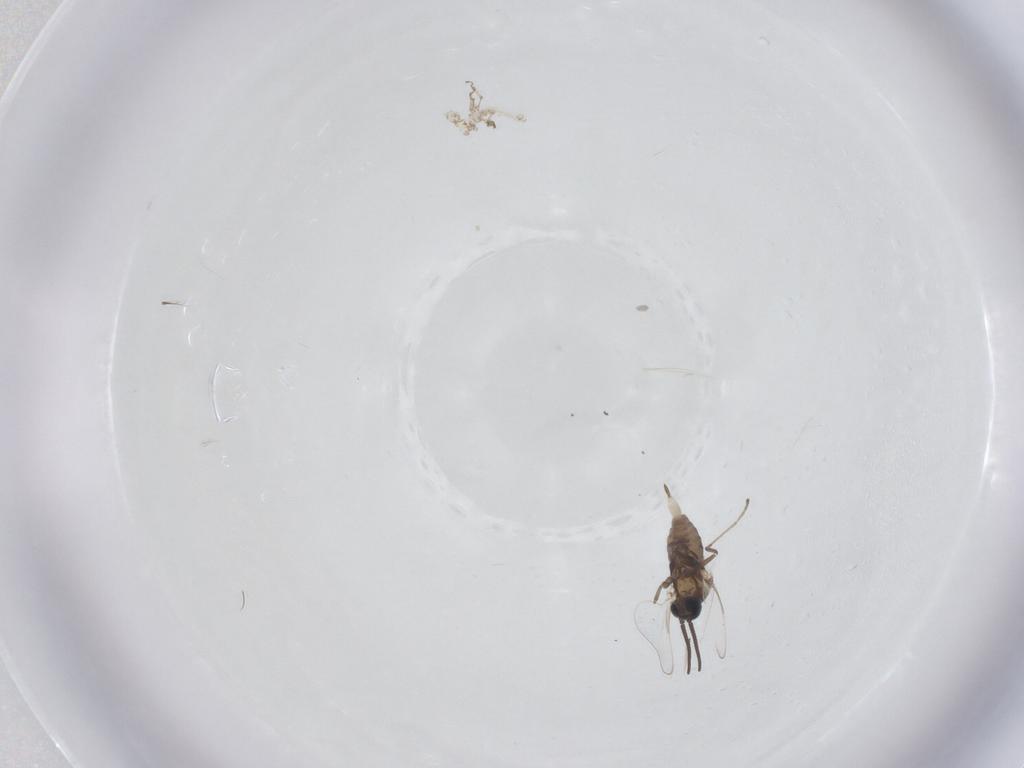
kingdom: Animalia
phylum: Arthropoda
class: Insecta
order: Diptera
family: Cecidomyiidae
